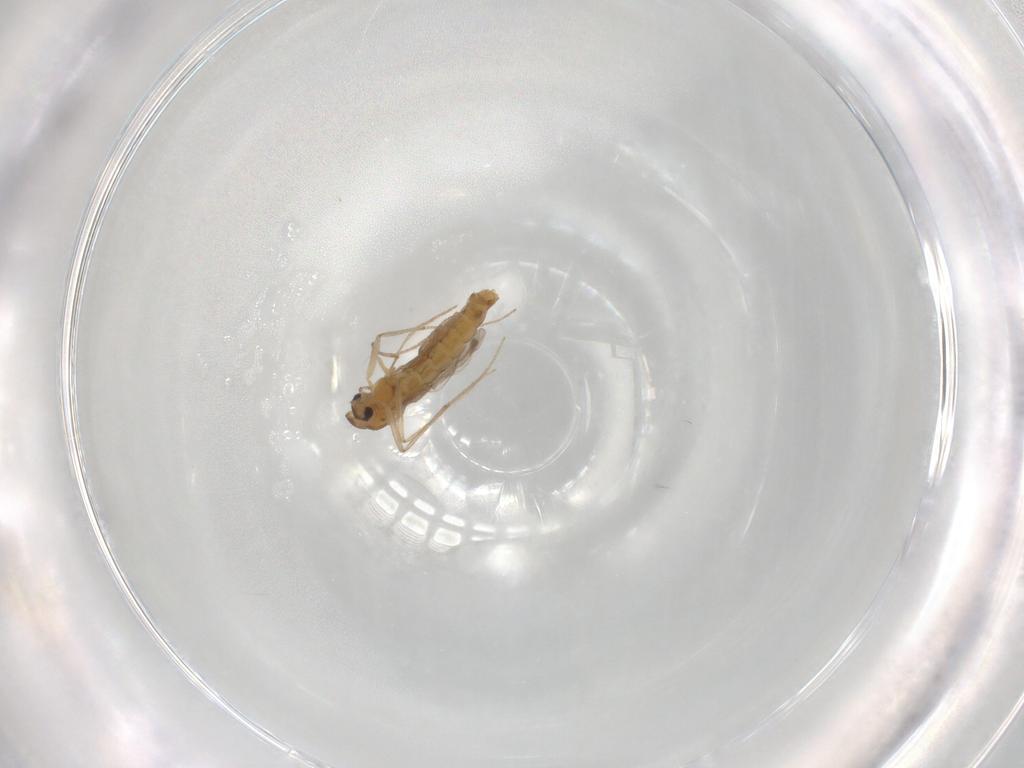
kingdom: Animalia
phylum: Arthropoda
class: Insecta
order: Diptera
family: Chironomidae
